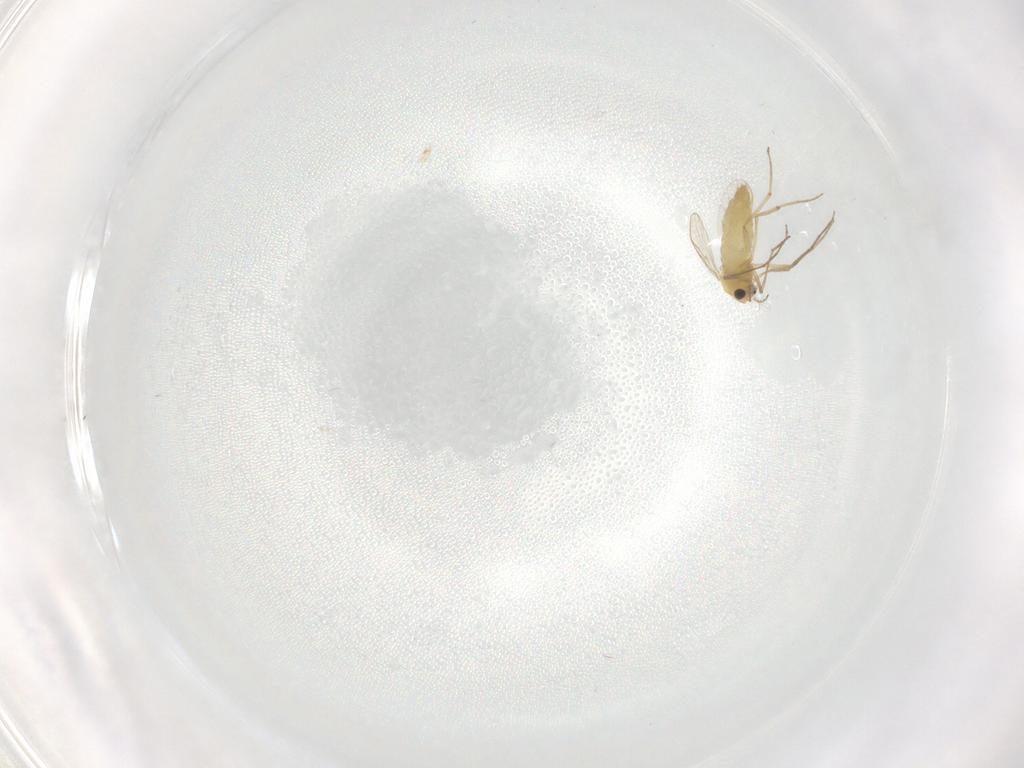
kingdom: Animalia
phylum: Arthropoda
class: Insecta
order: Diptera
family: Chironomidae
